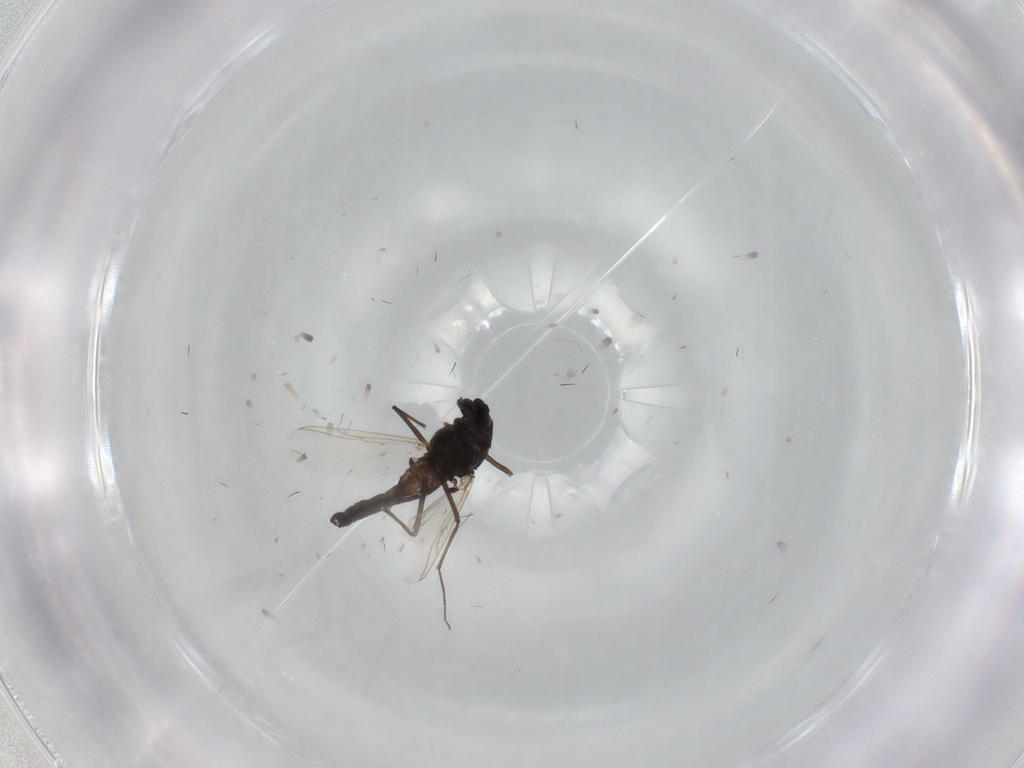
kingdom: Animalia
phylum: Arthropoda
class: Insecta
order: Diptera
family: Chironomidae
